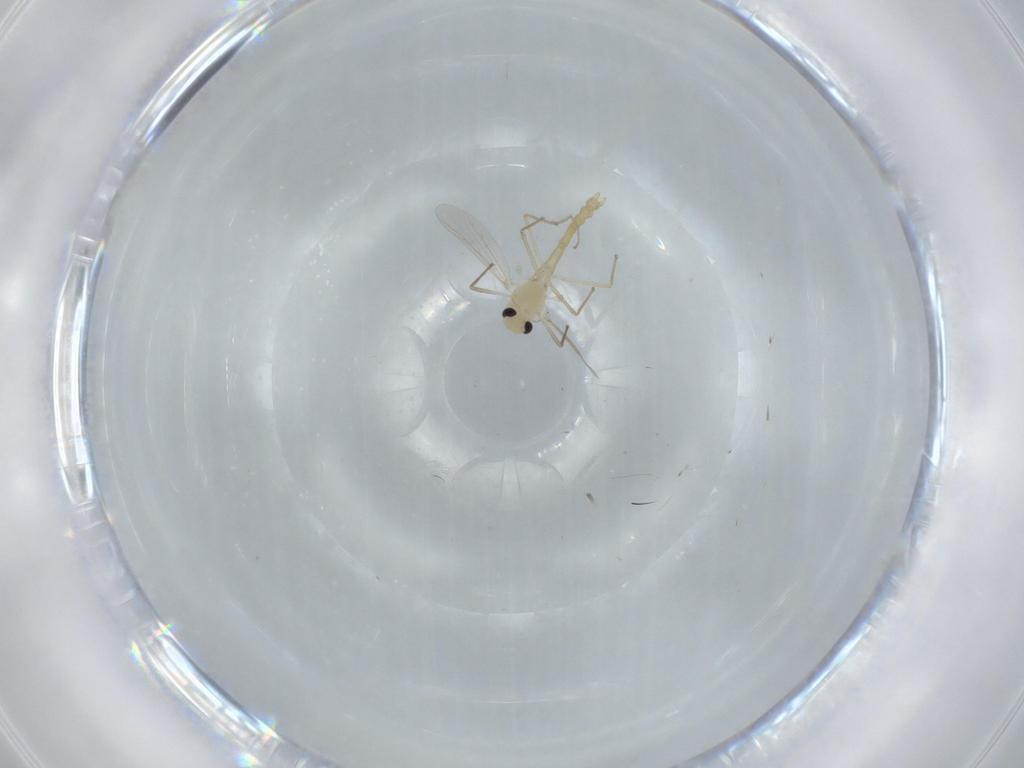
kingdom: Animalia
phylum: Arthropoda
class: Insecta
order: Diptera
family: Chironomidae
